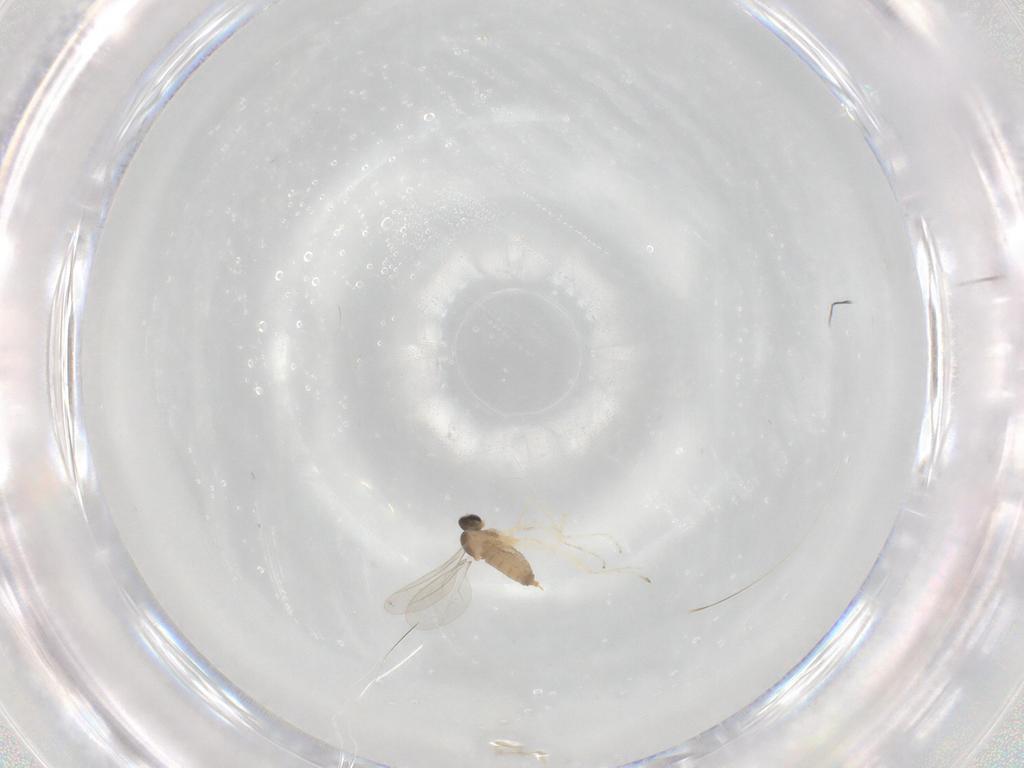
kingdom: Animalia
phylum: Arthropoda
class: Insecta
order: Diptera
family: Cecidomyiidae
